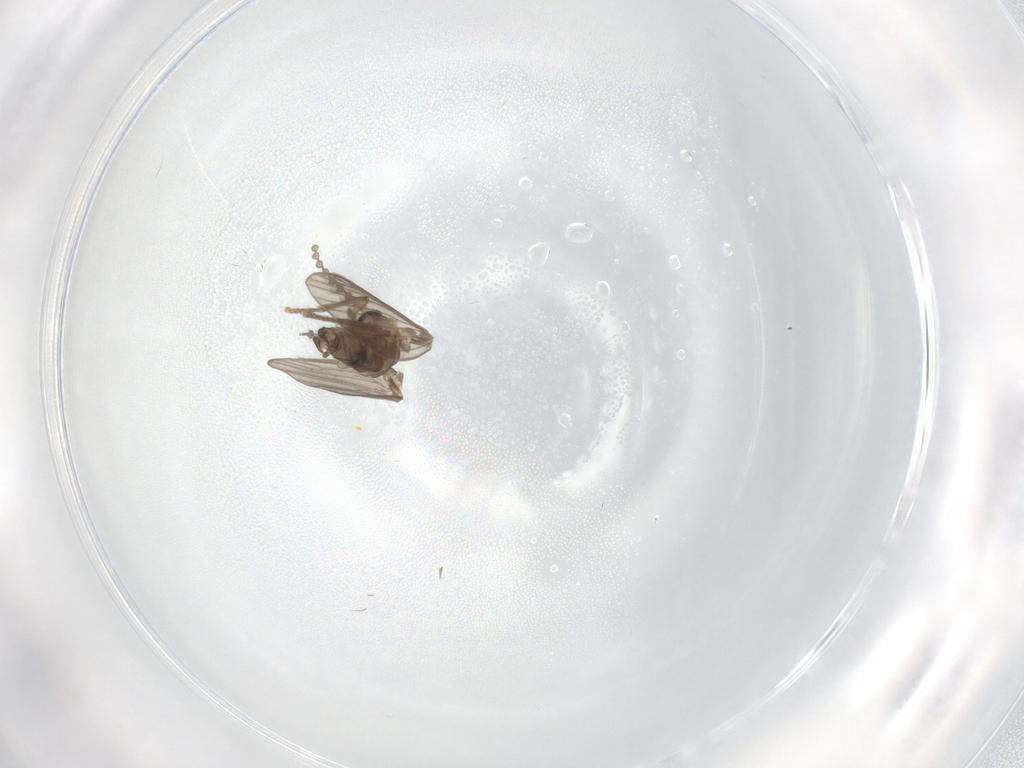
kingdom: Animalia
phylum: Arthropoda
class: Insecta
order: Diptera
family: Psychodidae
